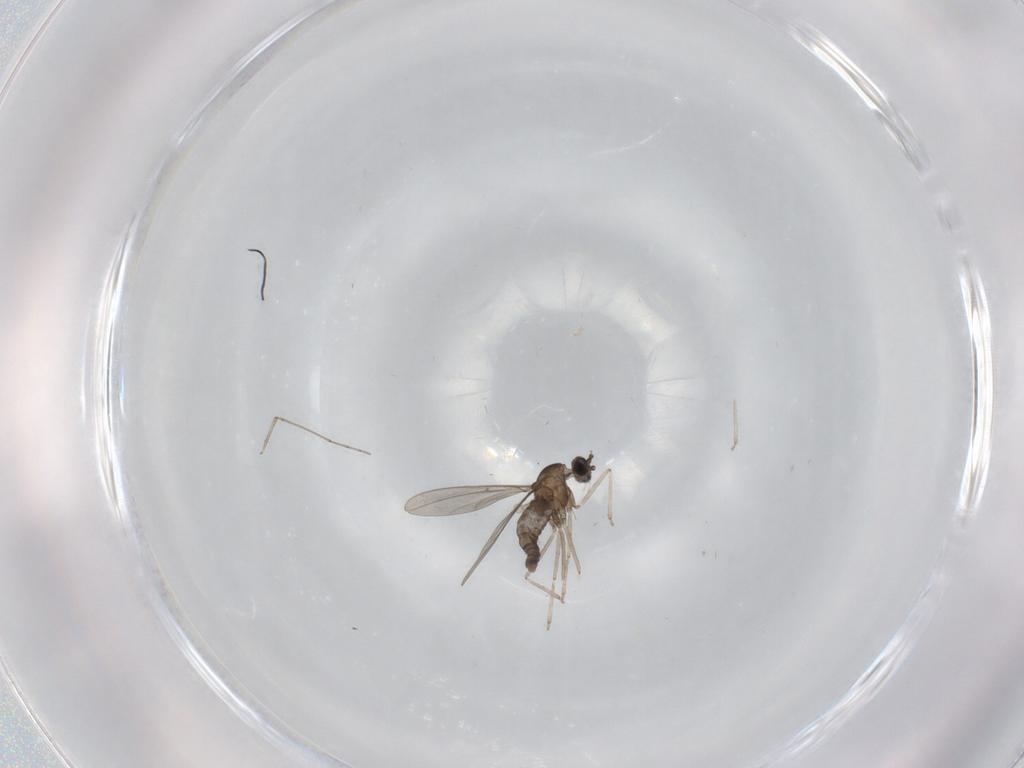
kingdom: Animalia
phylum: Arthropoda
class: Insecta
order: Diptera
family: Cecidomyiidae
